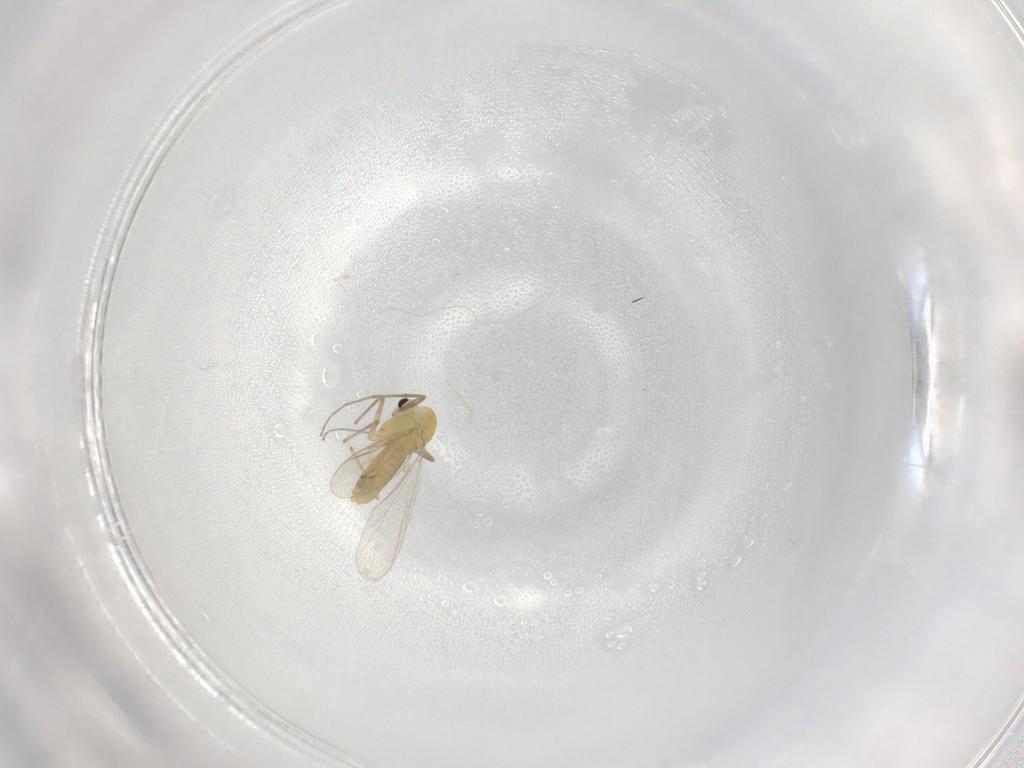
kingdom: Animalia
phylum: Arthropoda
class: Insecta
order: Diptera
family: Chironomidae
